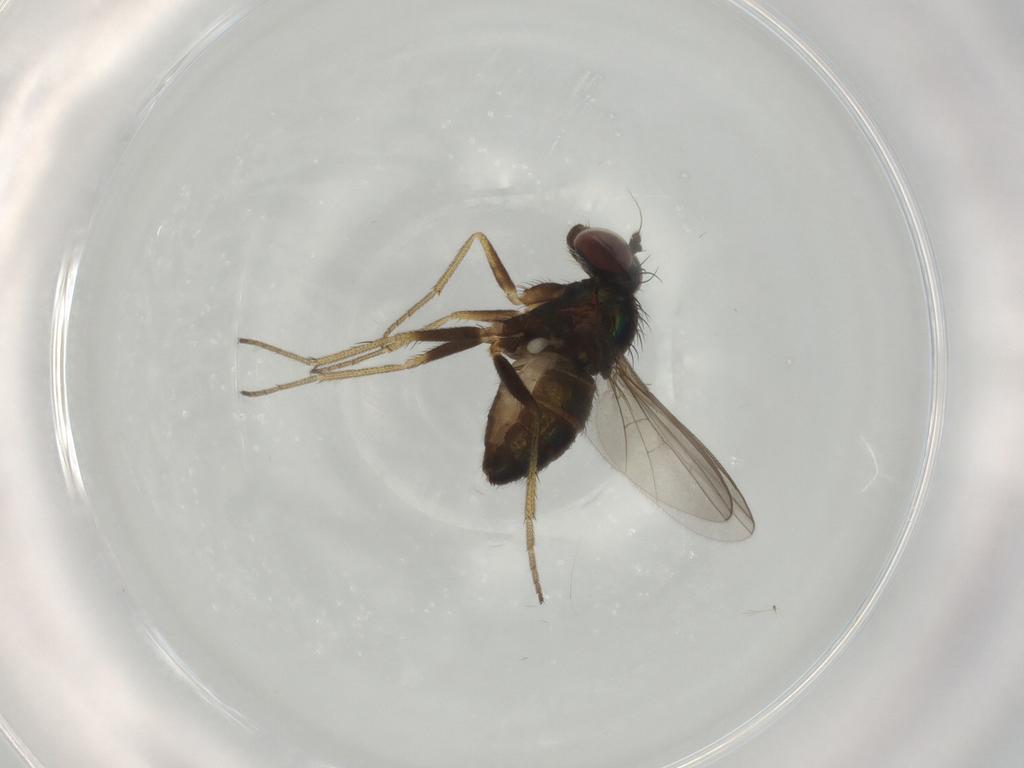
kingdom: Animalia
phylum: Arthropoda
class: Insecta
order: Diptera
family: Dolichopodidae
